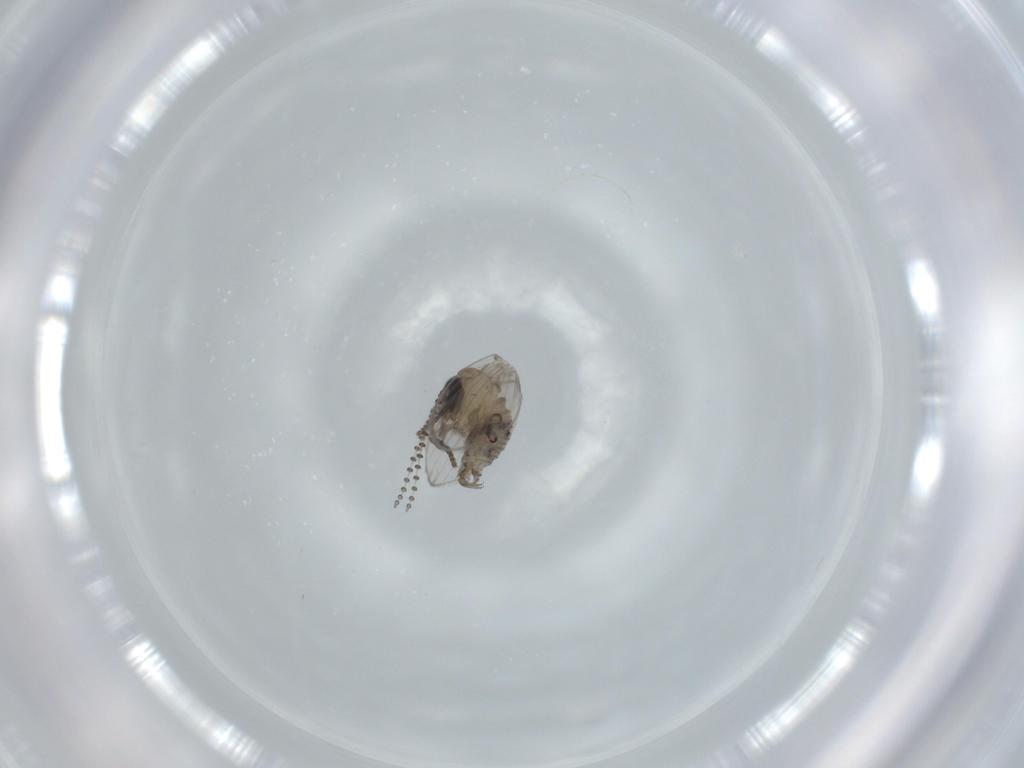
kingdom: Animalia
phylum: Arthropoda
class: Insecta
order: Diptera
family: Psychodidae
